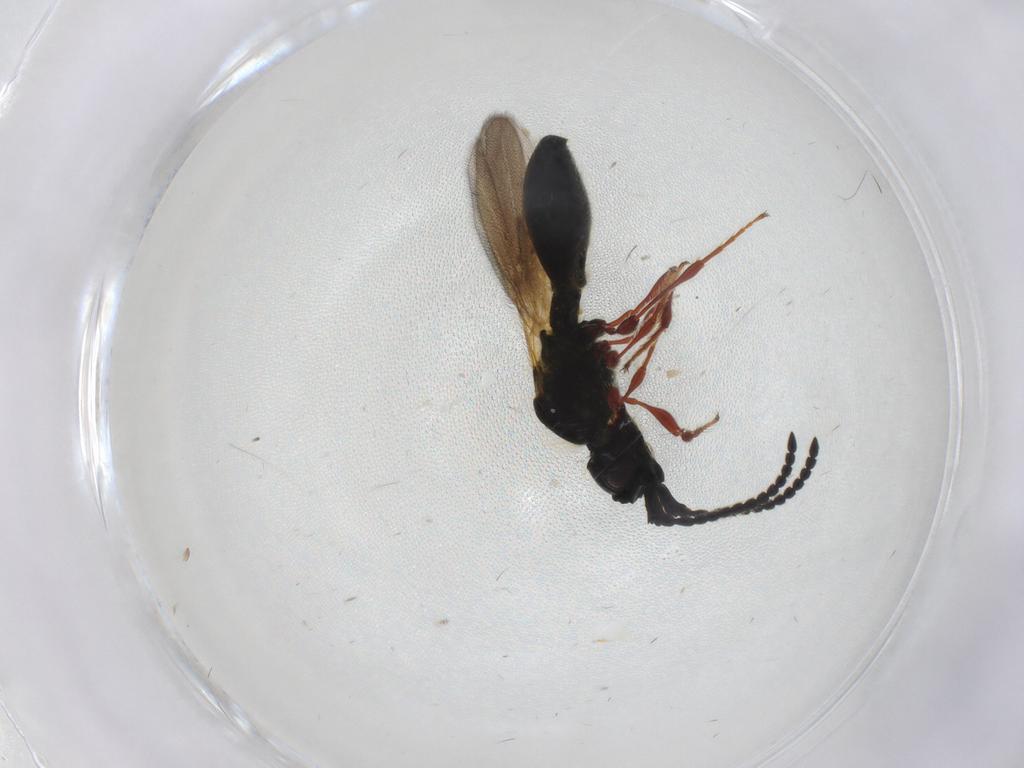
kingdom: Animalia
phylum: Arthropoda
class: Insecta
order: Hymenoptera
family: Diapriidae
